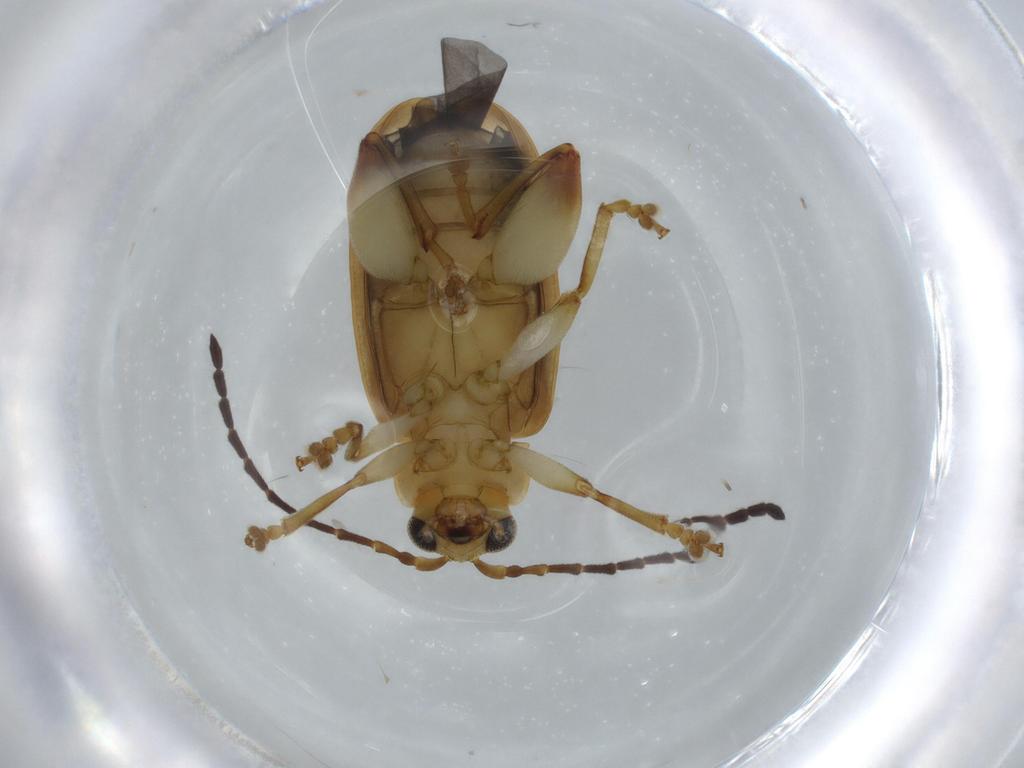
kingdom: Animalia
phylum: Arthropoda
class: Insecta
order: Coleoptera
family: Chrysomelidae
